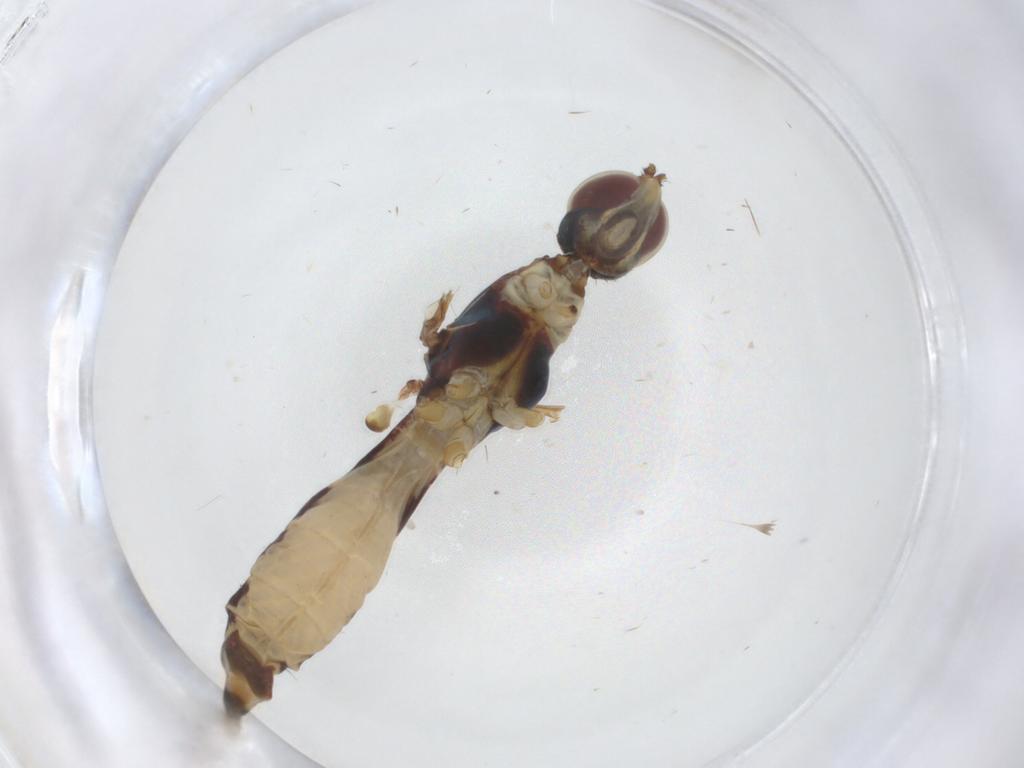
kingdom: Animalia
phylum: Arthropoda
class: Insecta
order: Diptera
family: Micropezidae
